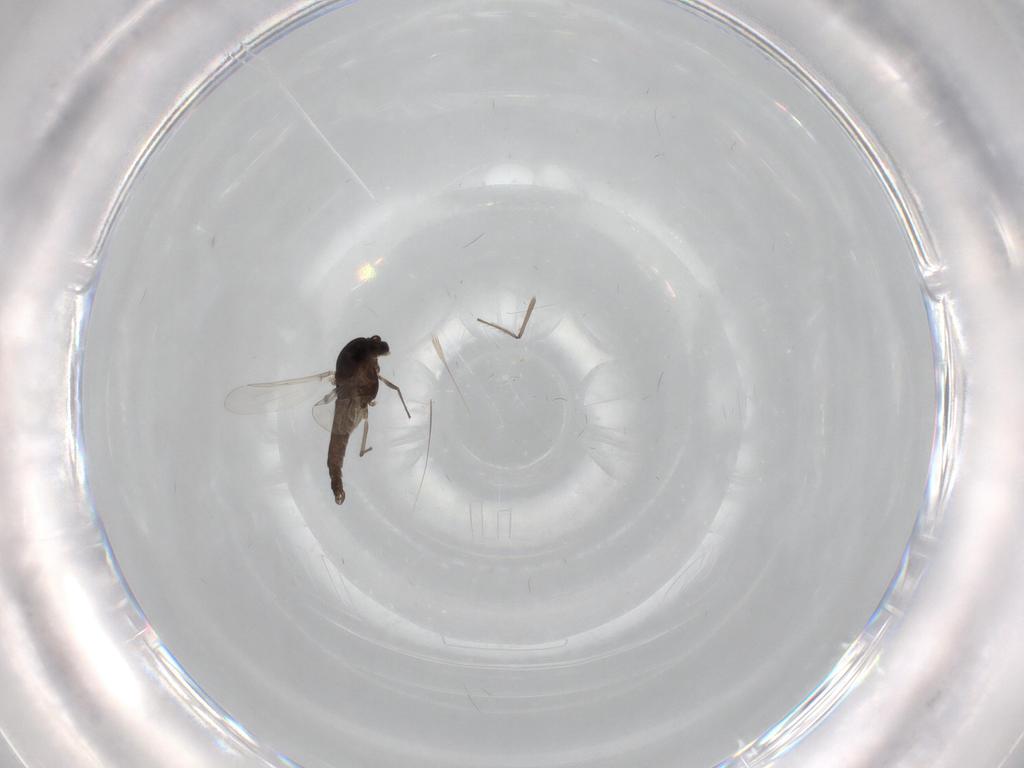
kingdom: Animalia
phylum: Arthropoda
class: Insecta
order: Diptera
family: Chironomidae
